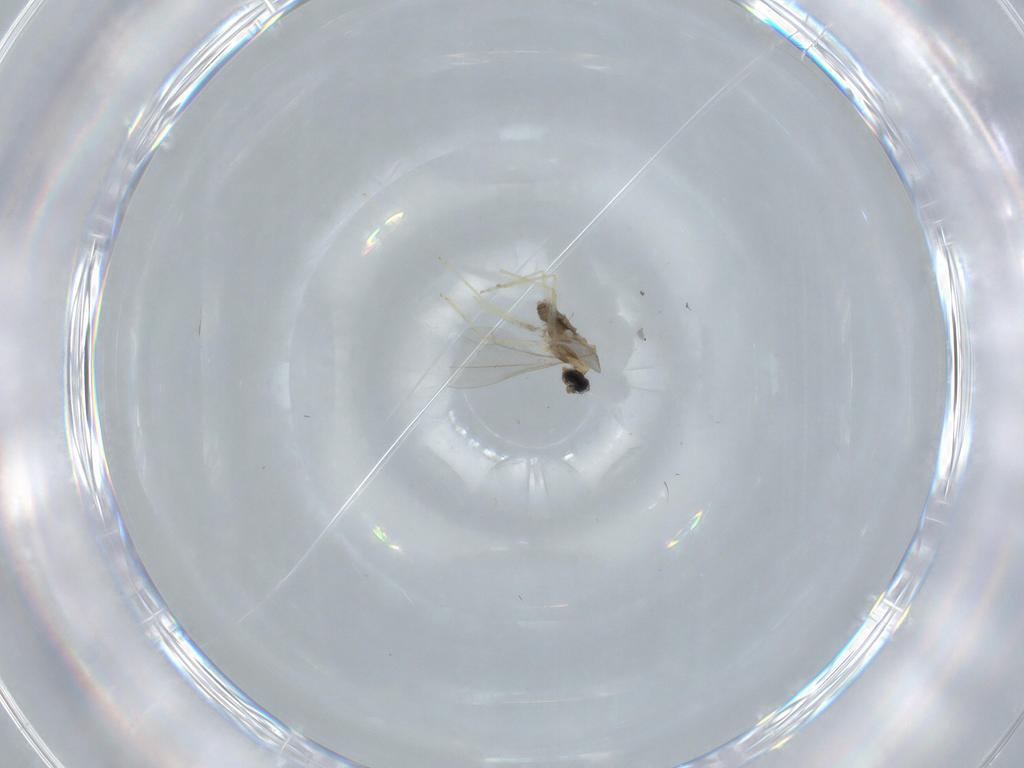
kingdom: Animalia
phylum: Arthropoda
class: Insecta
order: Diptera
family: Cecidomyiidae
